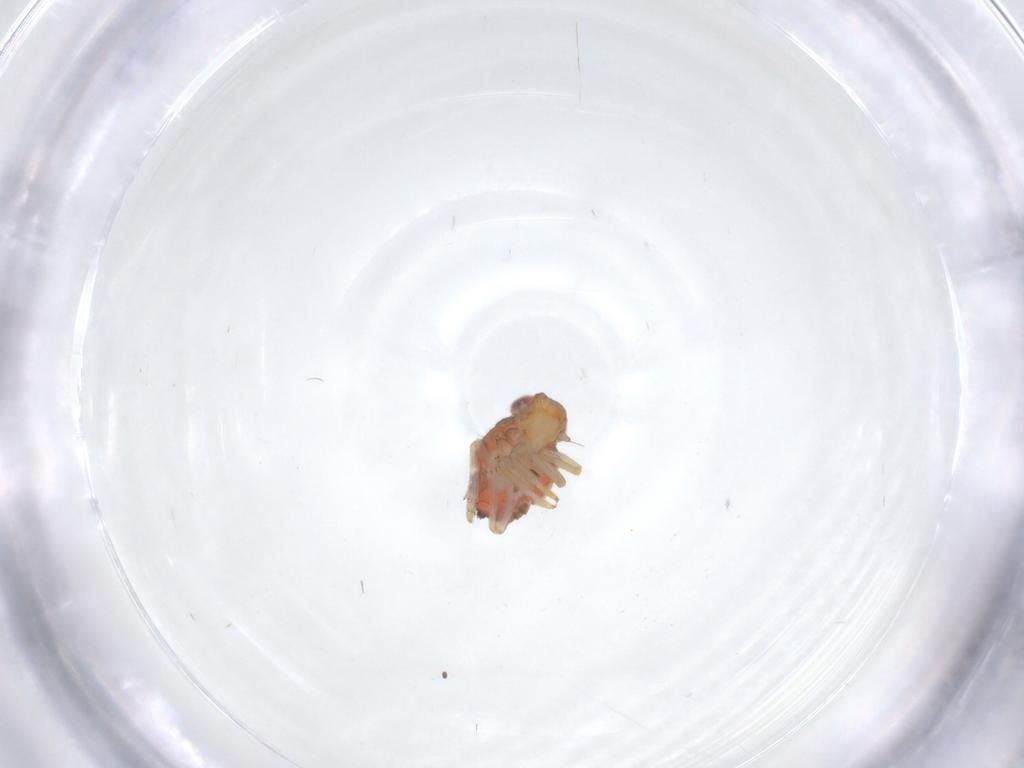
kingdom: Animalia
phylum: Arthropoda
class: Insecta
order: Hemiptera
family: Issidae
